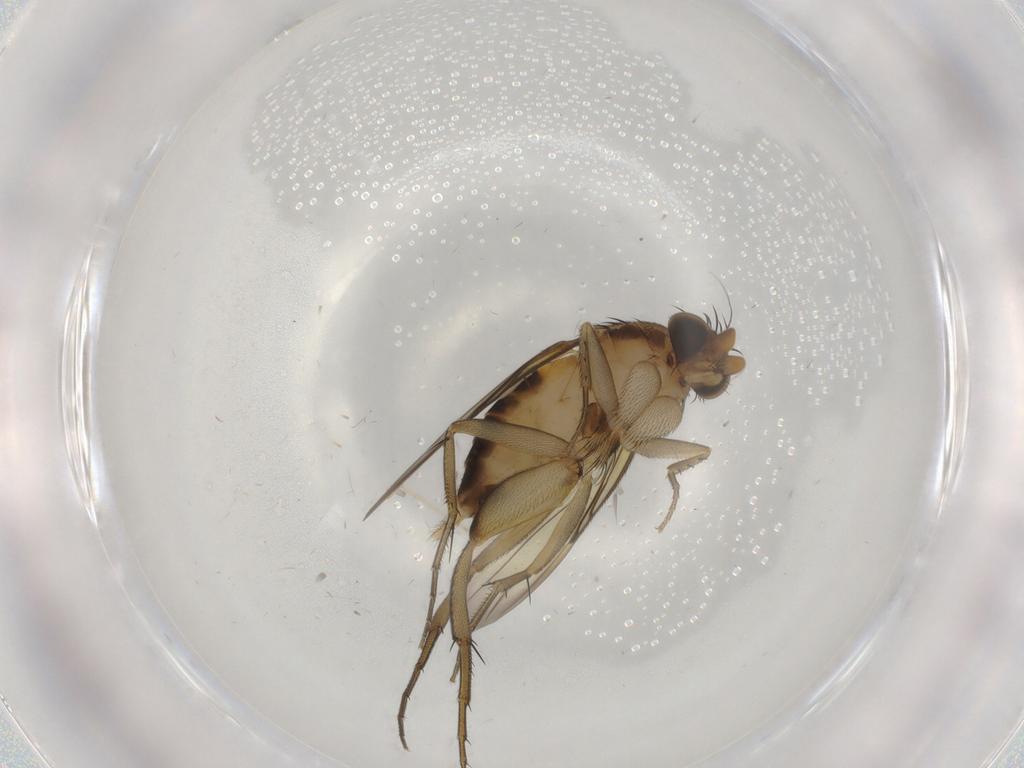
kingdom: Animalia
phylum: Arthropoda
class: Insecta
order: Diptera
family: Phoridae
